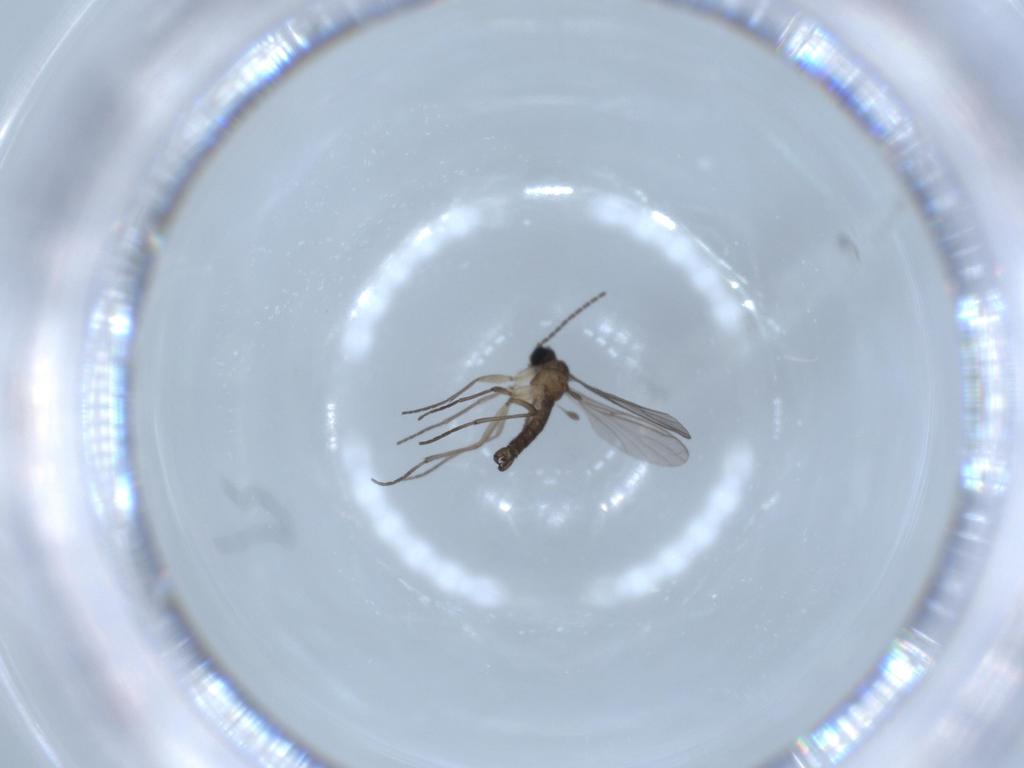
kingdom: Animalia
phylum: Arthropoda
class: Insecta
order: Diptera
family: Sciaridae
